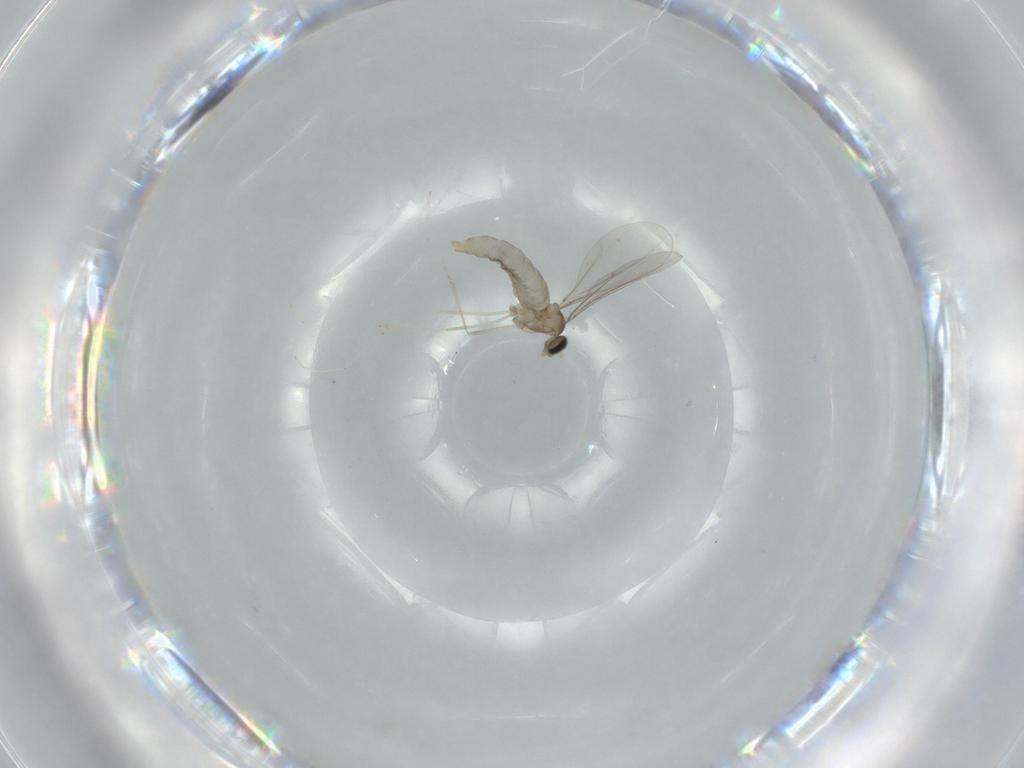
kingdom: Animalia
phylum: Arthropoda
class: Insecta
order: Diptera
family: Cecidomyiidae
